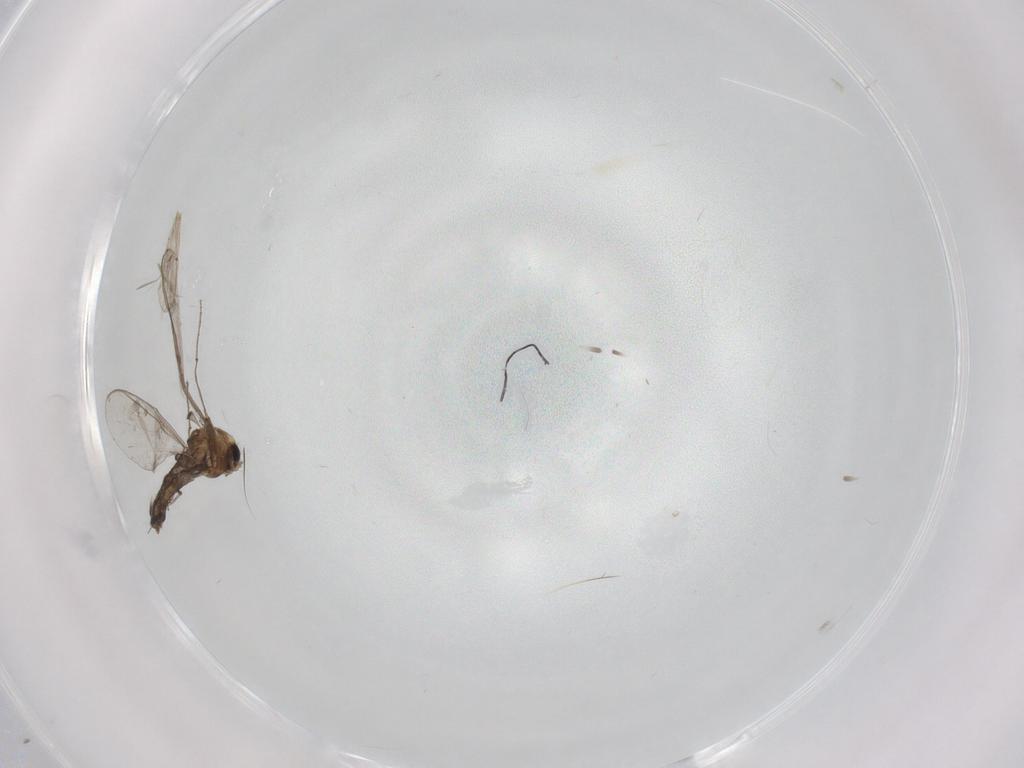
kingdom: Animalia
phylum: Arthropoda
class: Insecta
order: Diptera
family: Chironomidae
